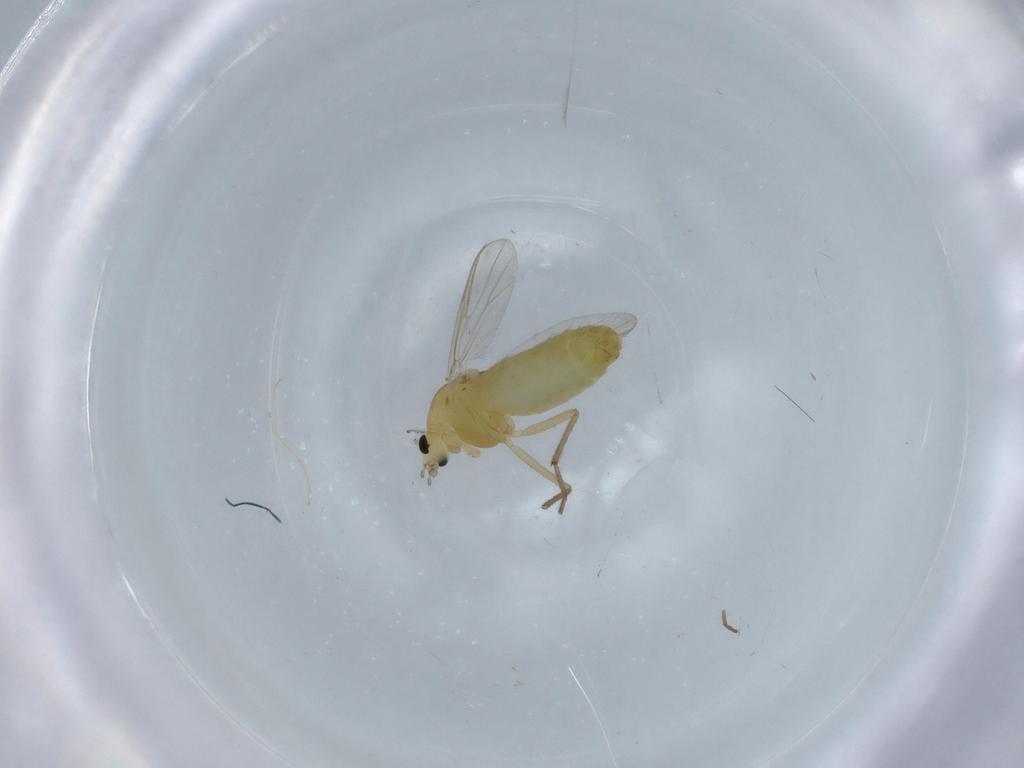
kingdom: Animalia
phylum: Arthropoda
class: Insecta
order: Diptera
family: Chironomidae
